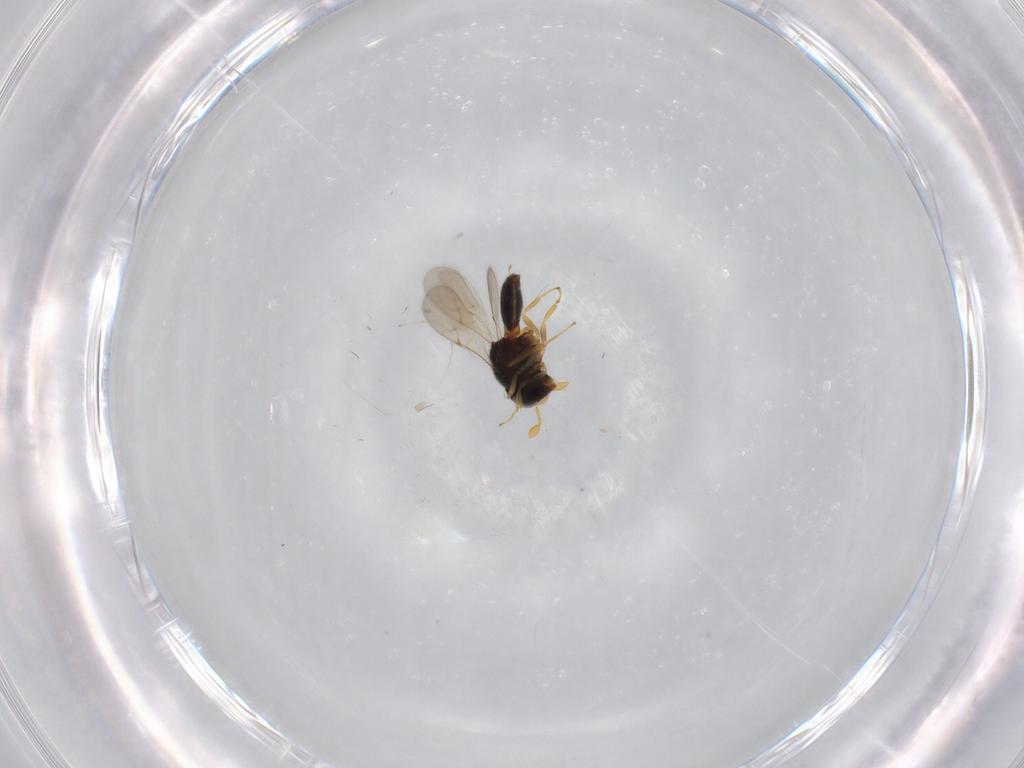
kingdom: Animalia
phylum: Arthropoda
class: Insecta
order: Hymenoptera
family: Scelionidae
